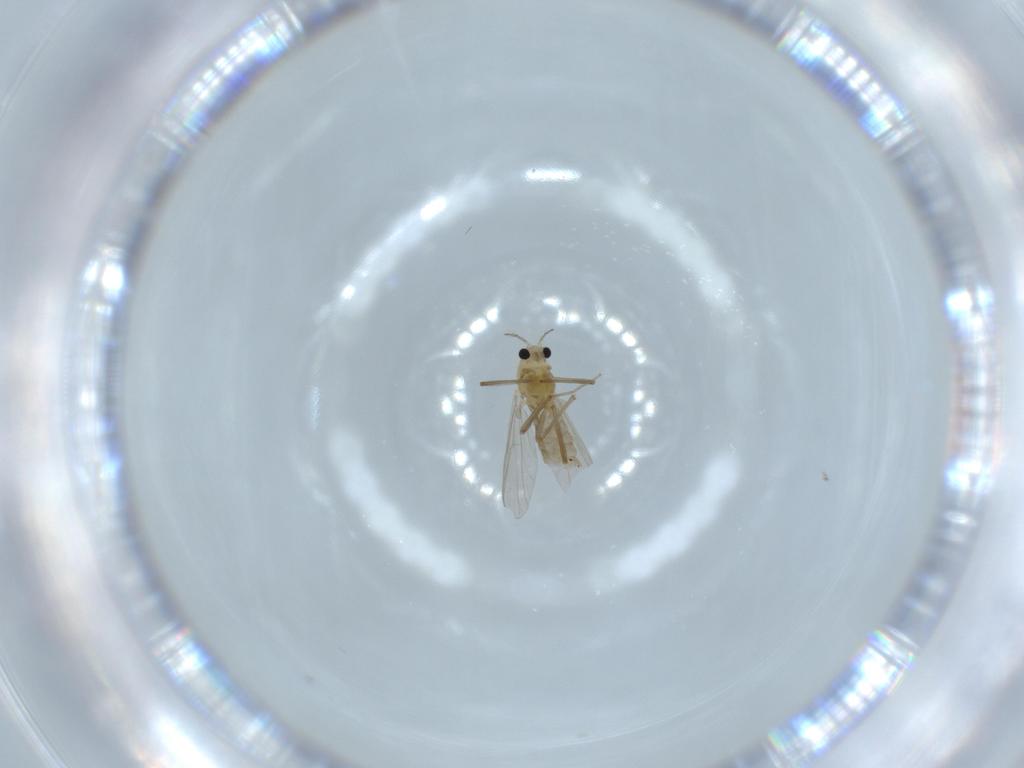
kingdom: Animalia
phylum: Arthropoda
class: Insecta
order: Diptera
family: Chironomidae
